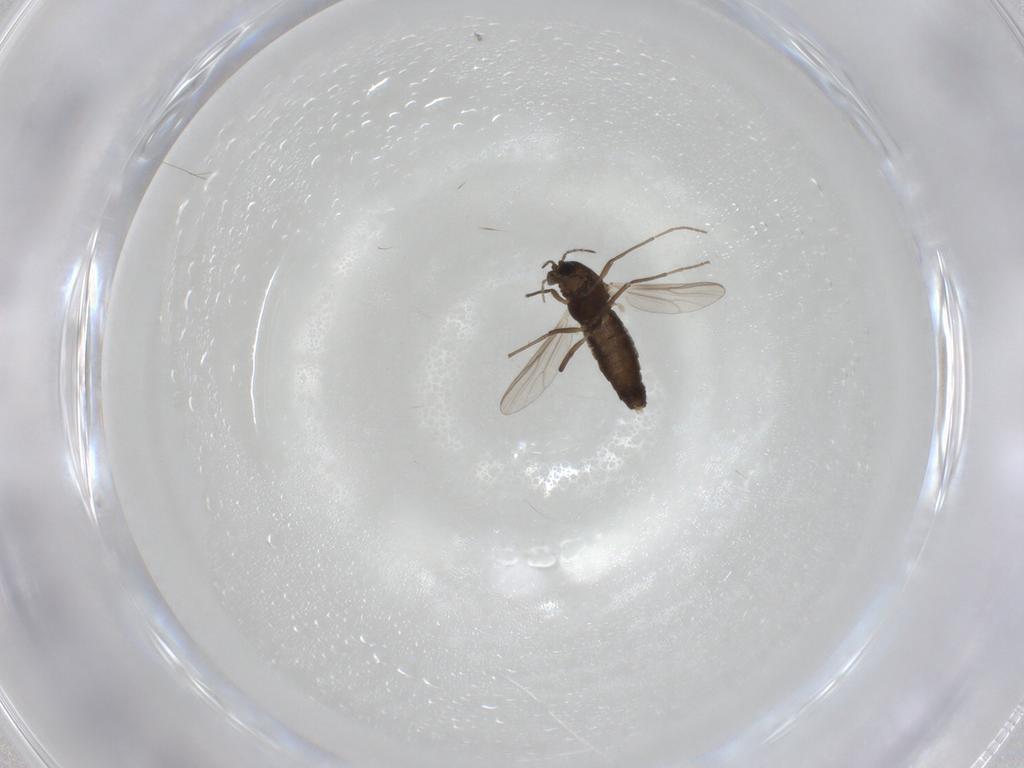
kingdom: Animalia
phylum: Arthropoda
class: Insecta
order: Diptera
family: Chironomidae
